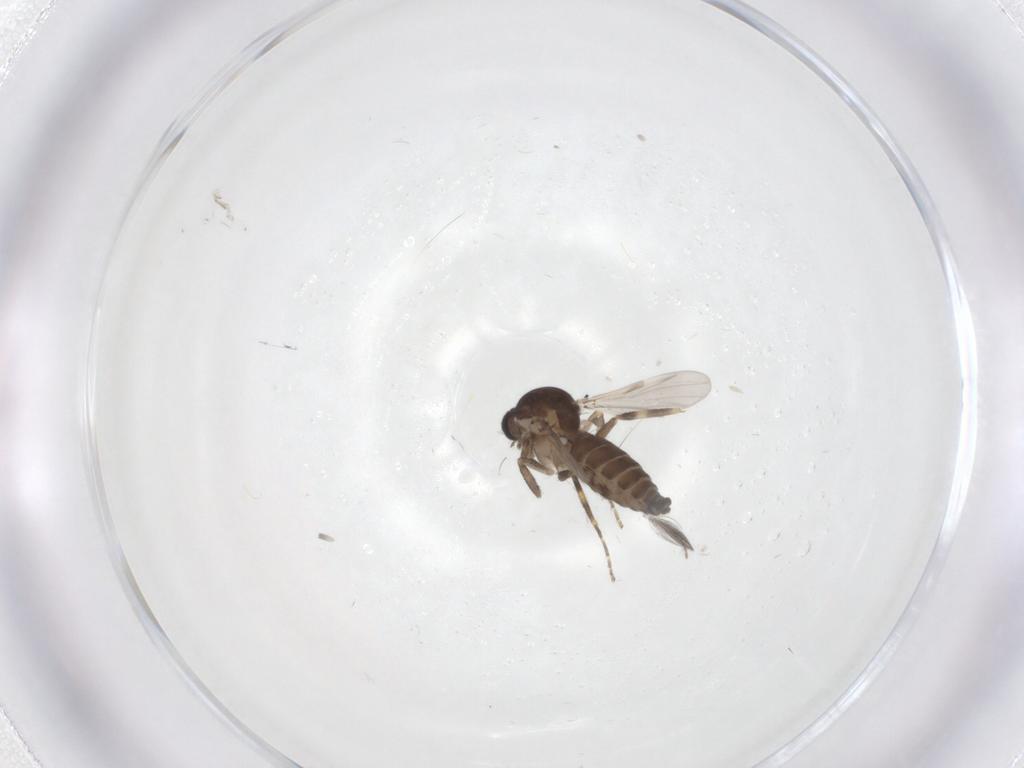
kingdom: Animalia
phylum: Arthropoda
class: Insecta
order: Diptera
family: Ceratopogonidae
